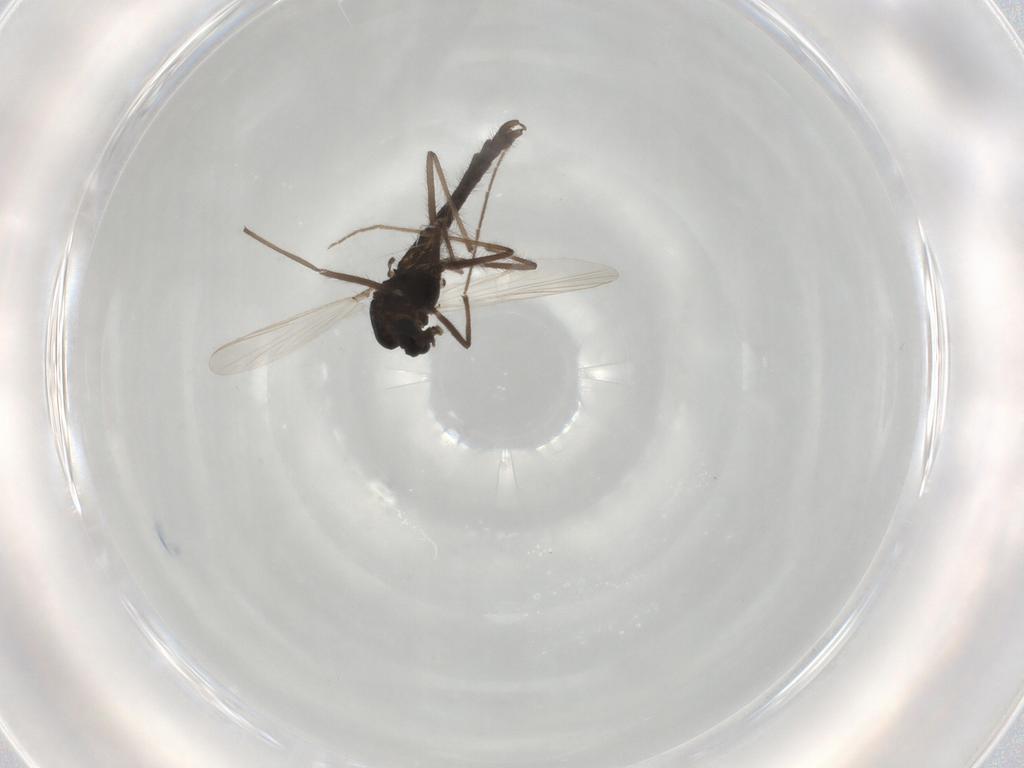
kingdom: Animalia
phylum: Arthropoda
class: Insecta
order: Diptera
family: Chironomidae
